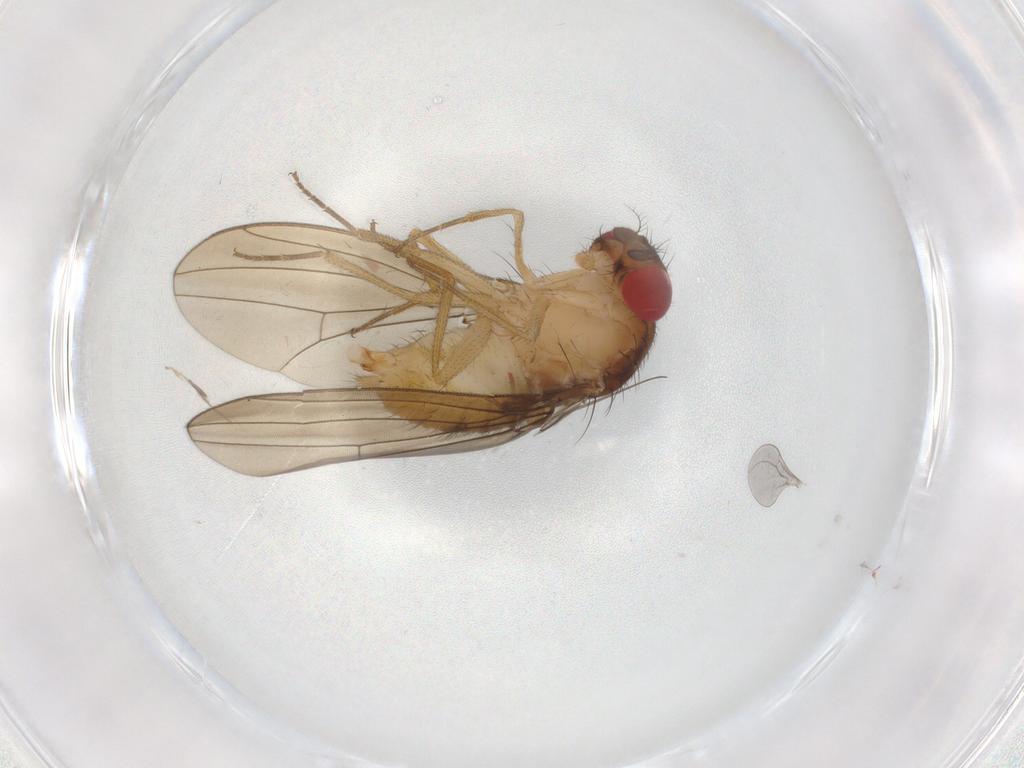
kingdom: Animalia
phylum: Arthropoda
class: Insecta
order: Diptera
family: Drosophilidae
